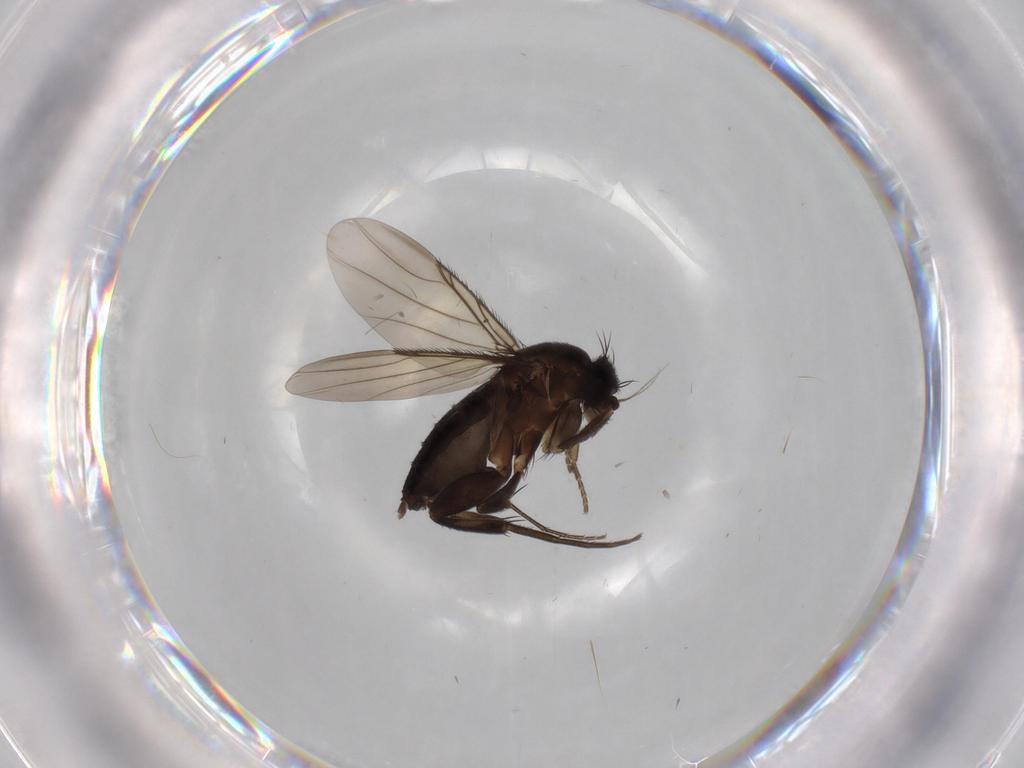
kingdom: Animalia
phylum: Arthropoda
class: Insecta
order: Diptera
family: Phoridae
